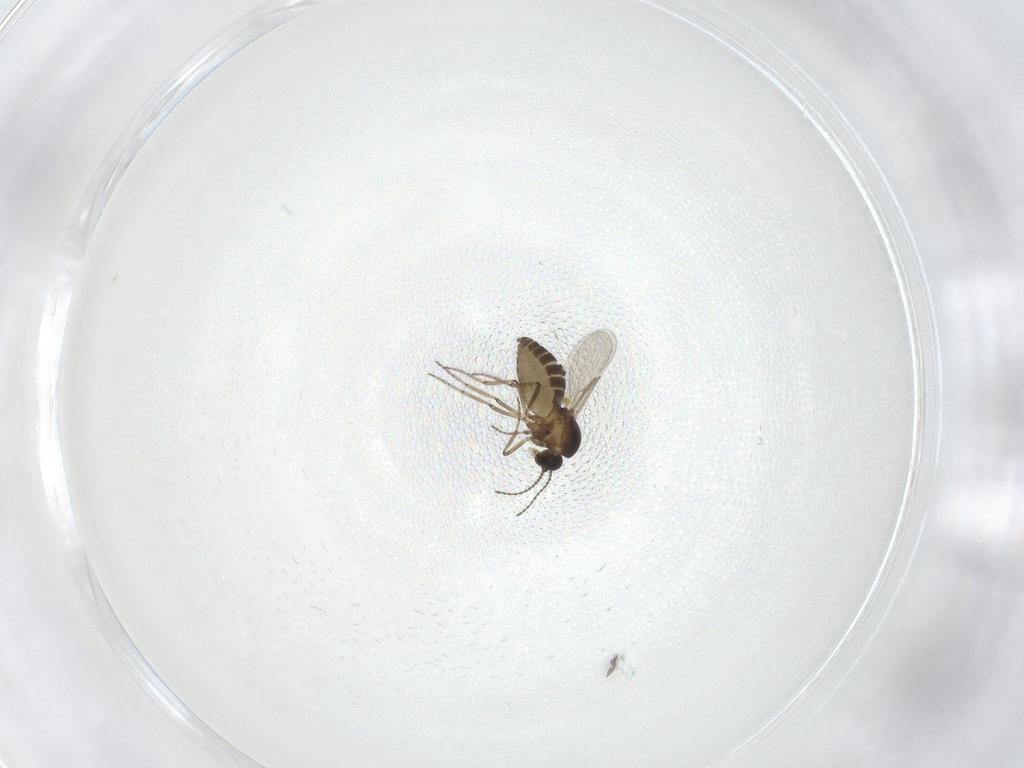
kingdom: Animalia
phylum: Arthropoda
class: Insecta
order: Diptera
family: Ceratopogonidae
